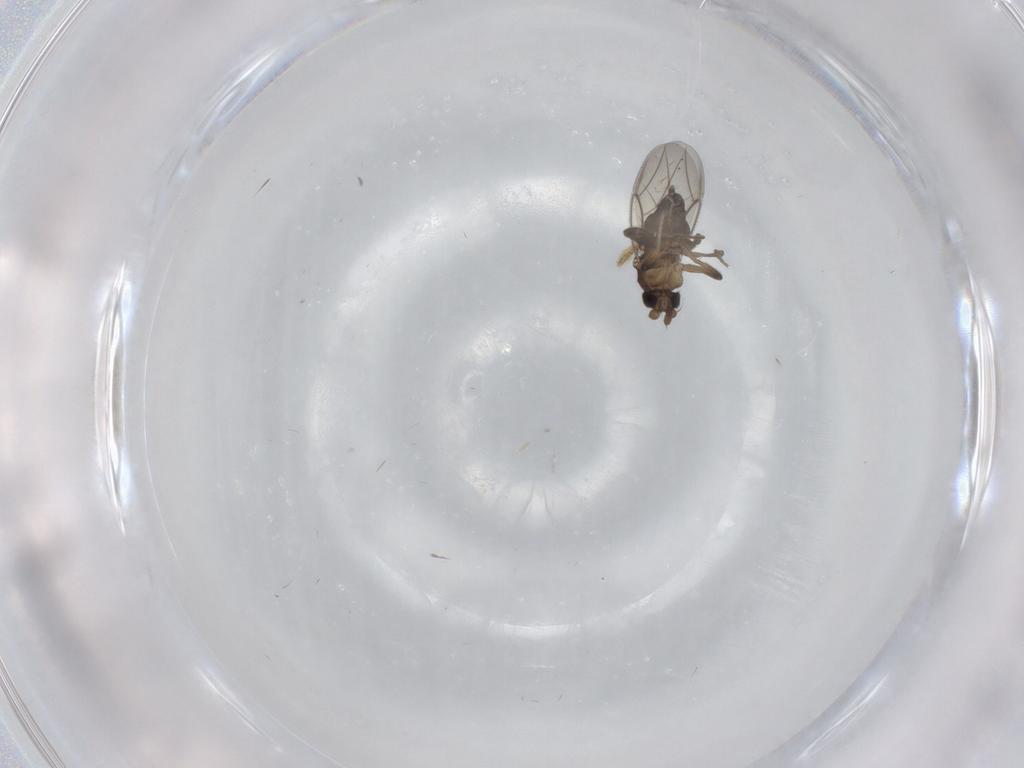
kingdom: Animalia
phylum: Arthropoda
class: Insecta
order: Diptera
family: Phoridae
